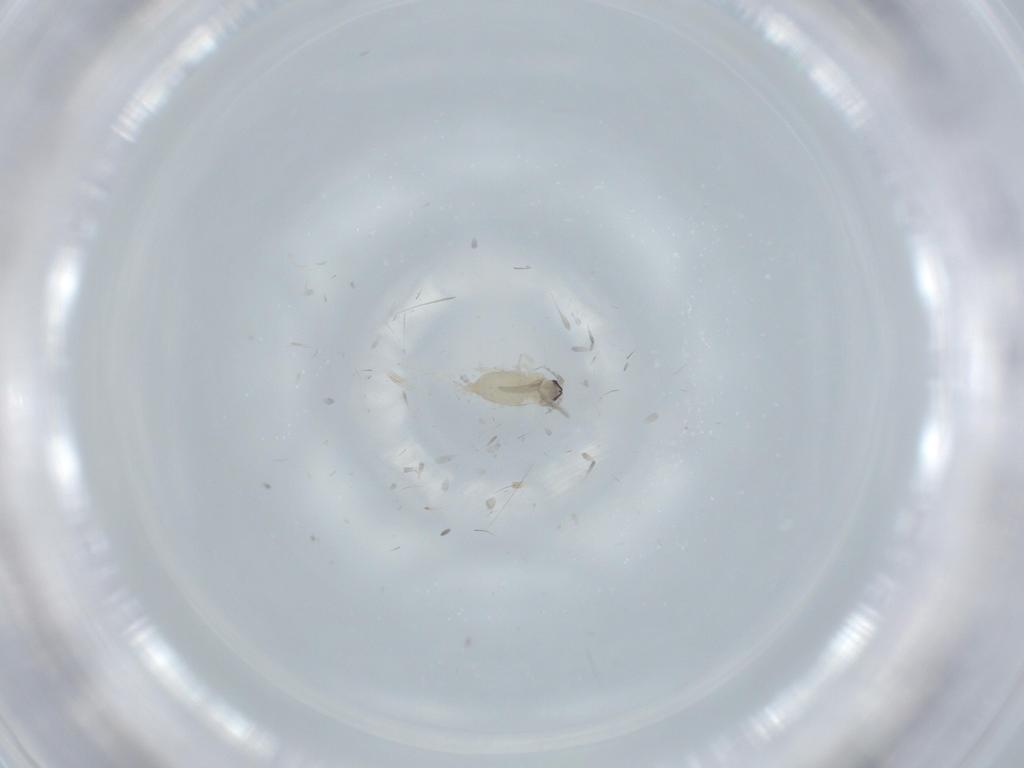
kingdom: Animalia
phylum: Arthropoda
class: Insecta
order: Diptera
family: Cecidomyiidae
